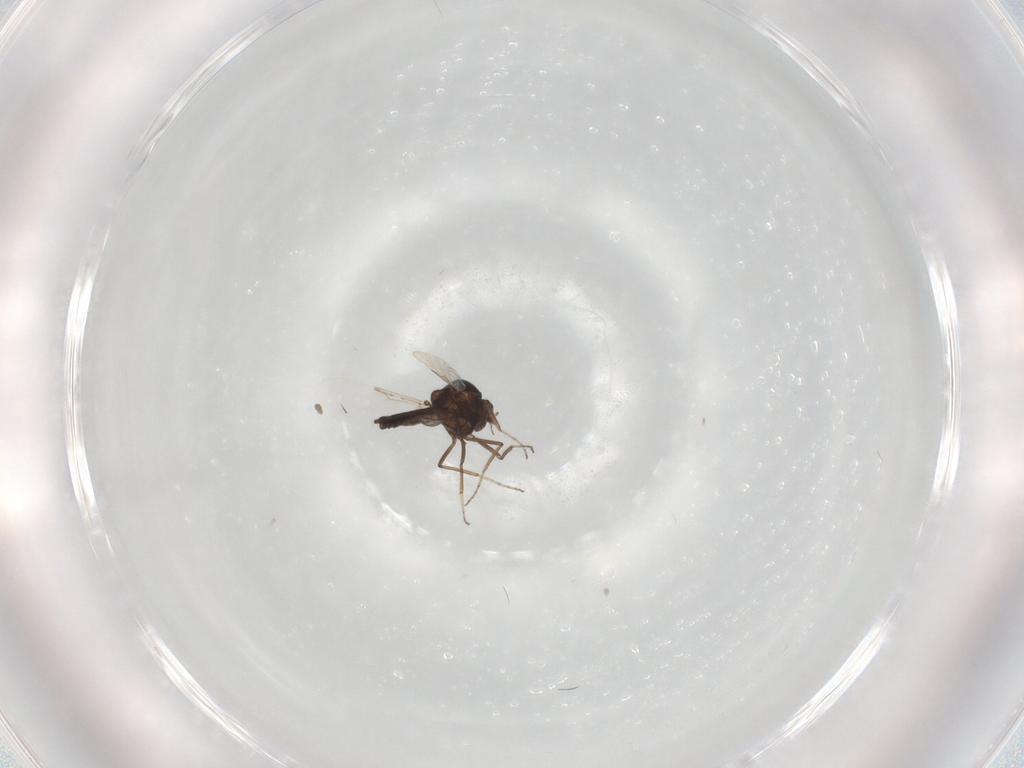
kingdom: Animalia
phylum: Arthropoda
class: Insecta
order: Diptera
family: Ceratopogonidae
